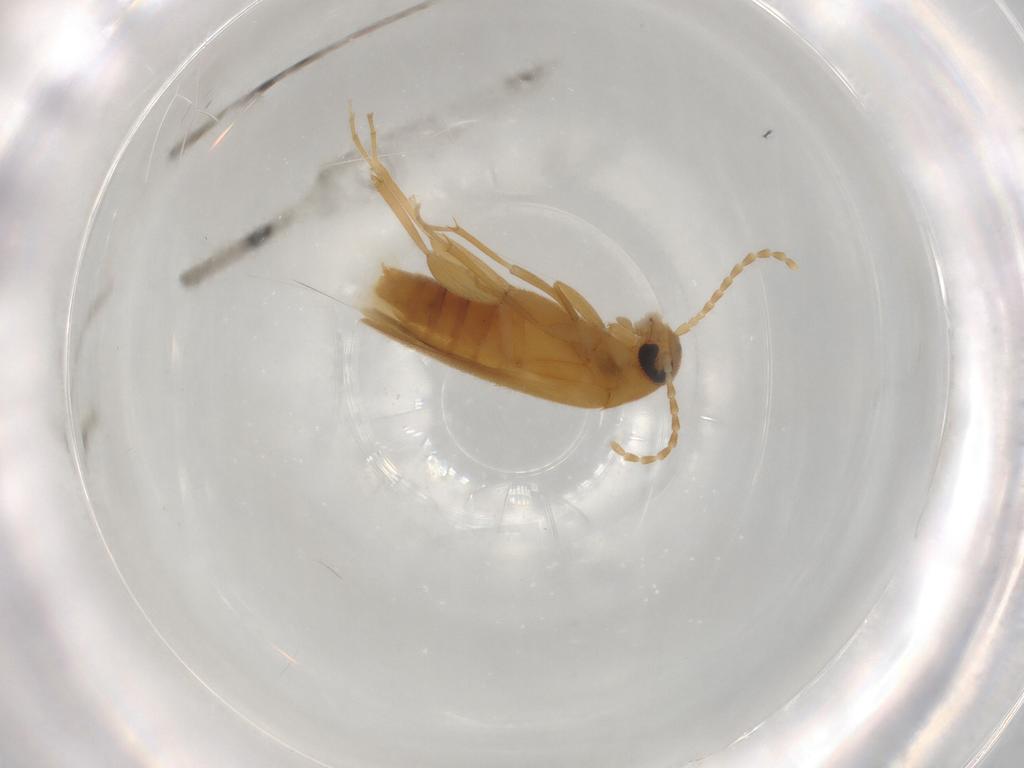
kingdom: Animalia
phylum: Arthropoda
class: Insecta
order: Coleoptera
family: Scraptiidae
